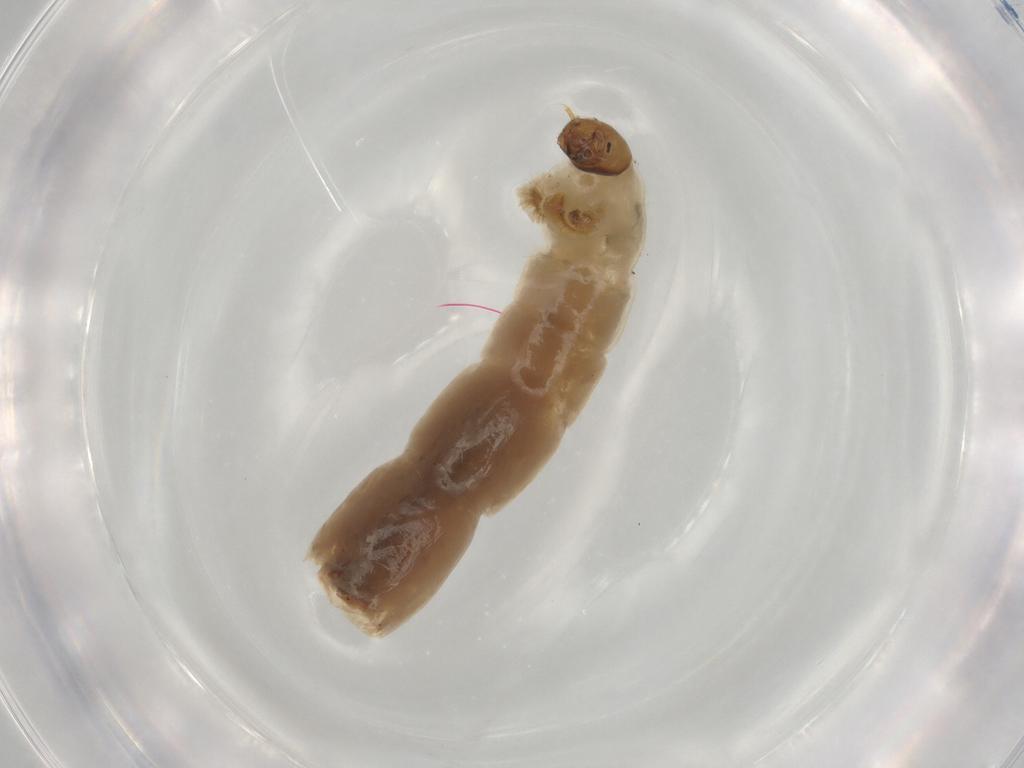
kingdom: Animalia
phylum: Arthropoda
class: Insecta
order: Diptera
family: Chironomidae
